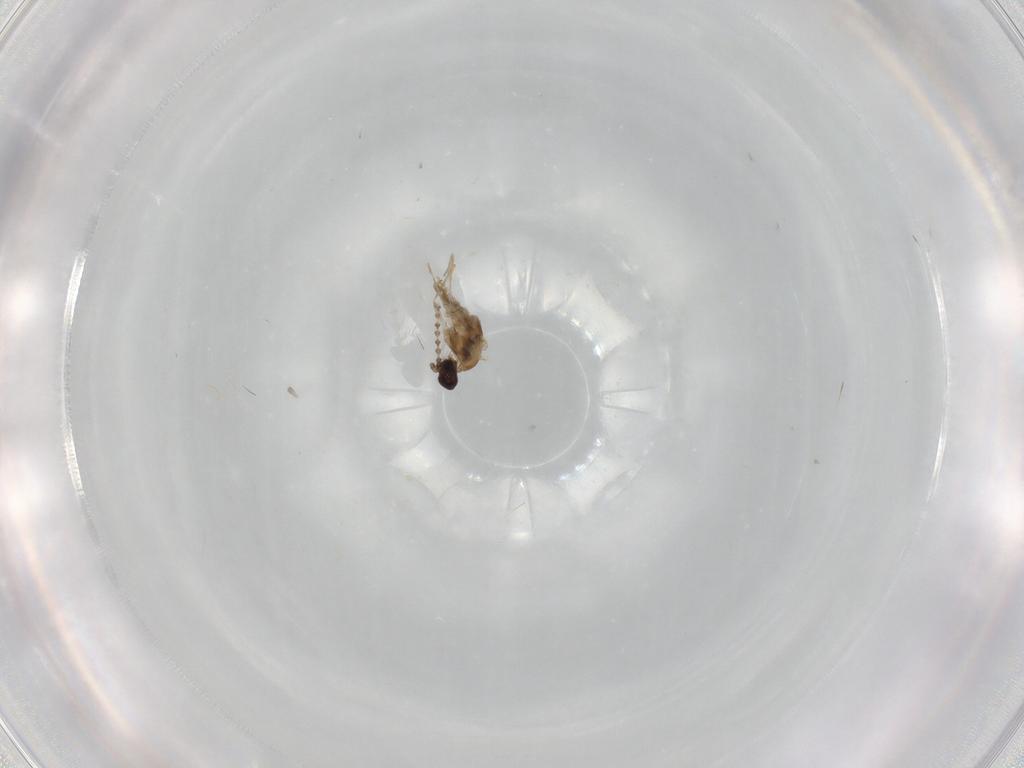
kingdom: Animalia
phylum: Arthropoda
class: Insecta
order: Diptera
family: Cecidomyiidae
